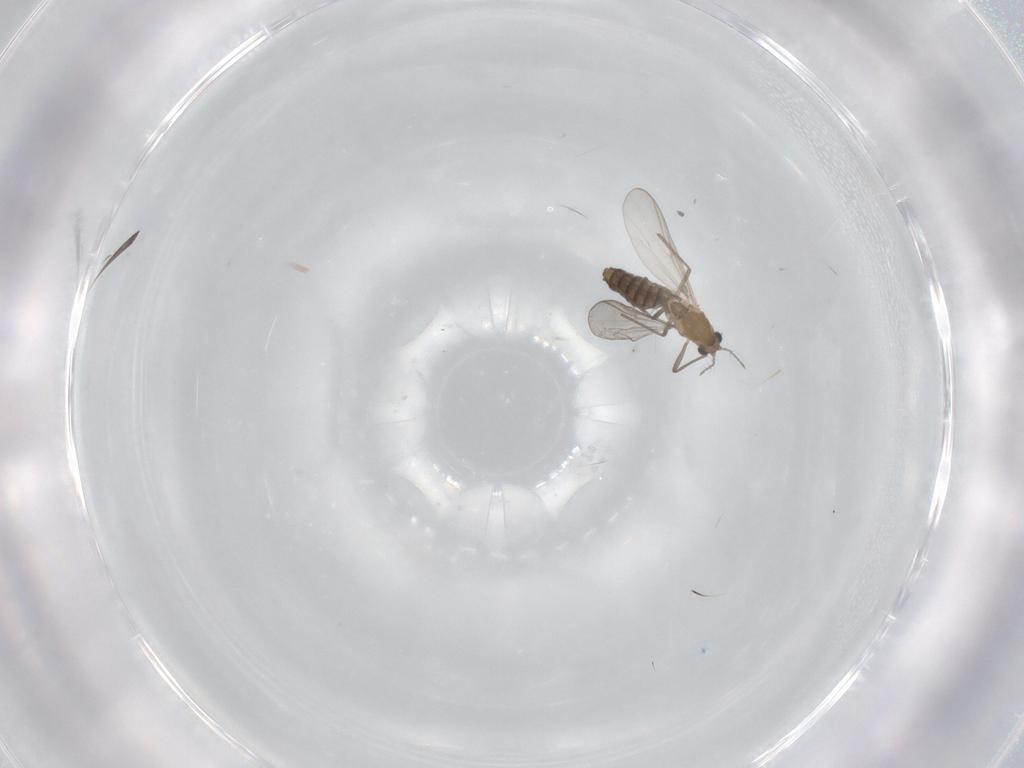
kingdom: Animalia
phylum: Arthropoda
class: Insecta
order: Diptera
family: Chironomidae
